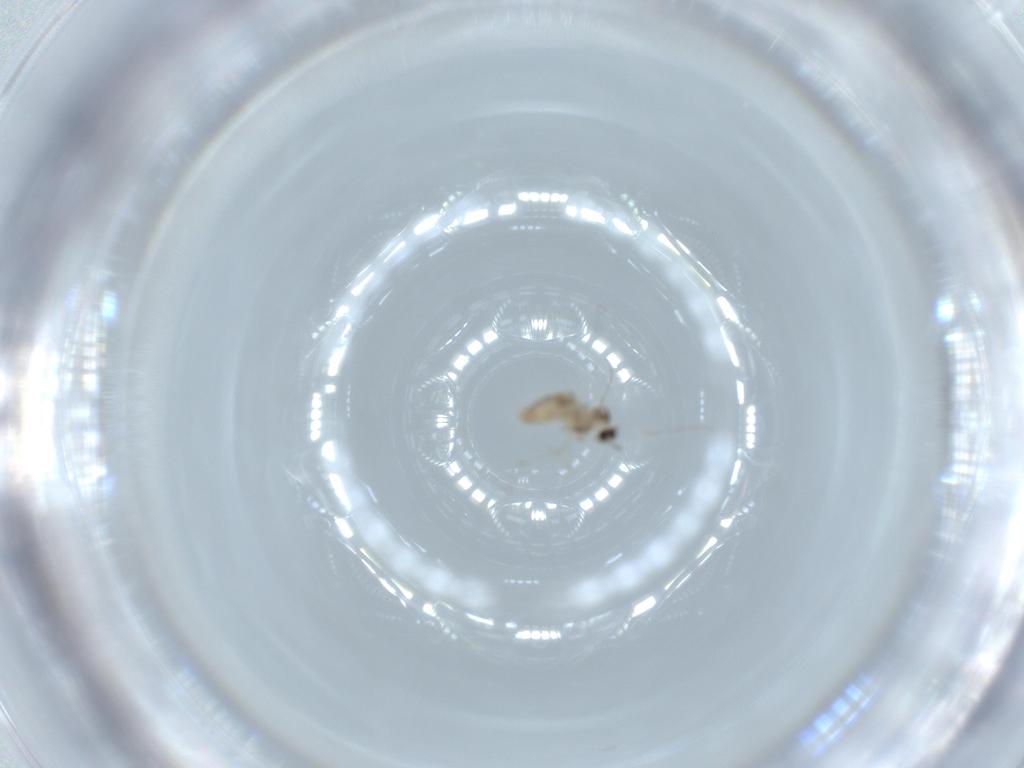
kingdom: Animalia
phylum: Arthropoda
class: Insecta
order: Diptera
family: Cecidomyiidae
